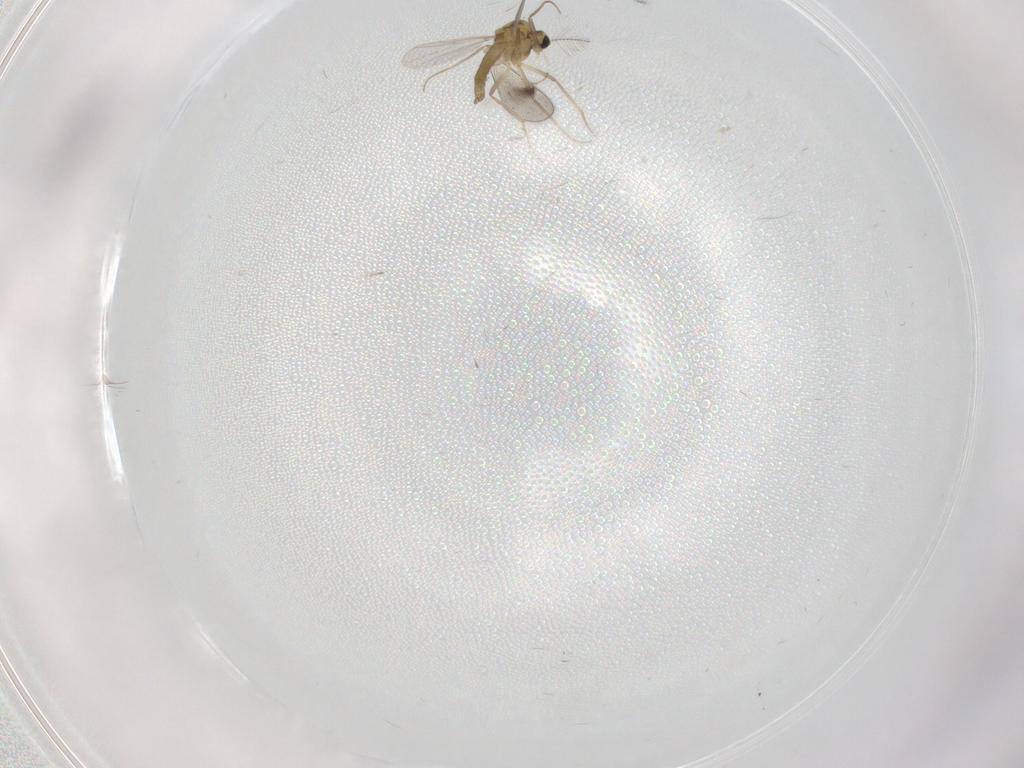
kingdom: Animalia
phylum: Arthropoda
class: Insecta
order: Diptera
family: Chironomidae
